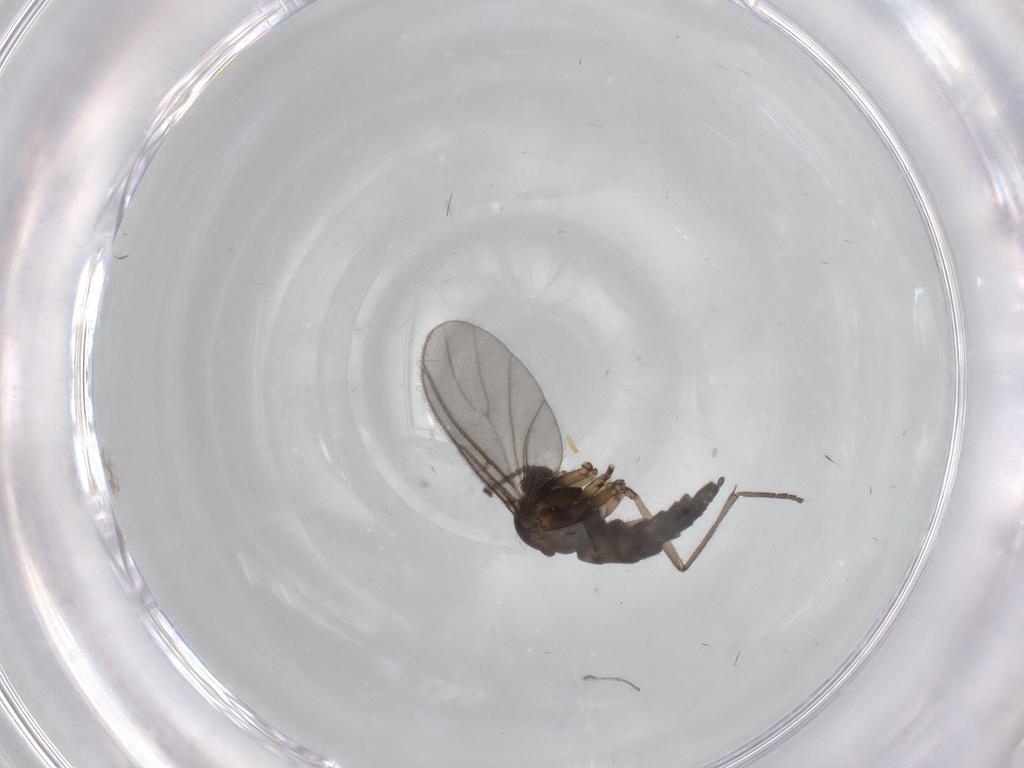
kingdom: Animalia
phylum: Arthropoda
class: Insecta
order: Diptera
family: Sciaridae
